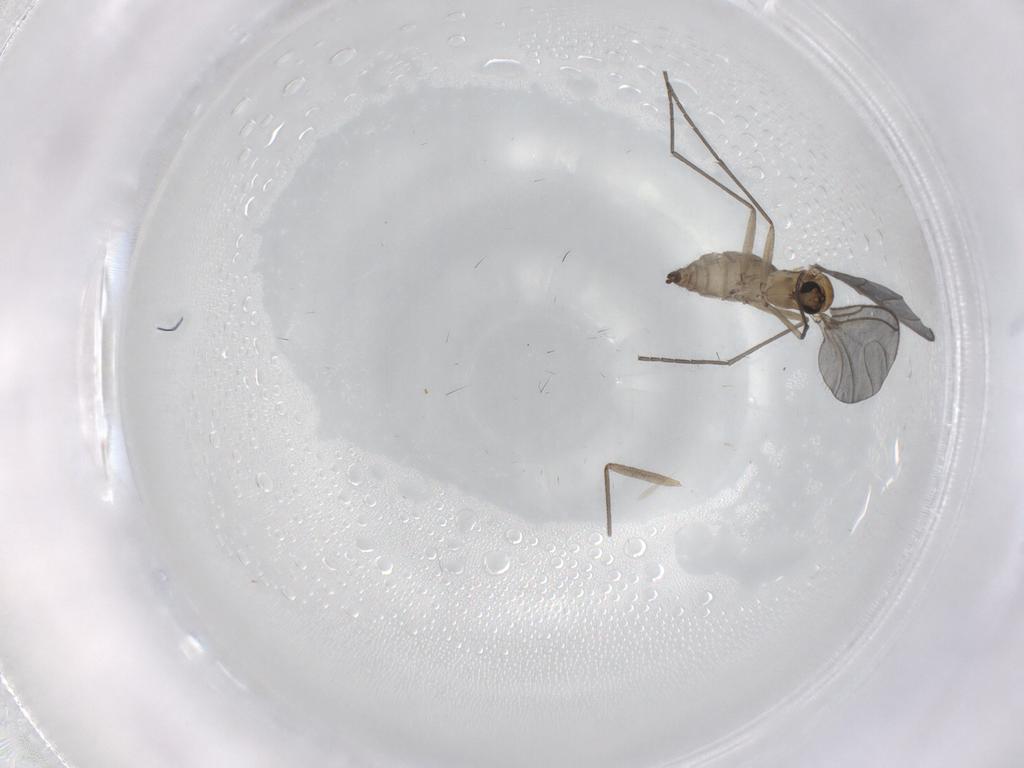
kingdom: Animalia
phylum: Arthropoda
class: Insecta
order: Diptera
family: Sciaridae
